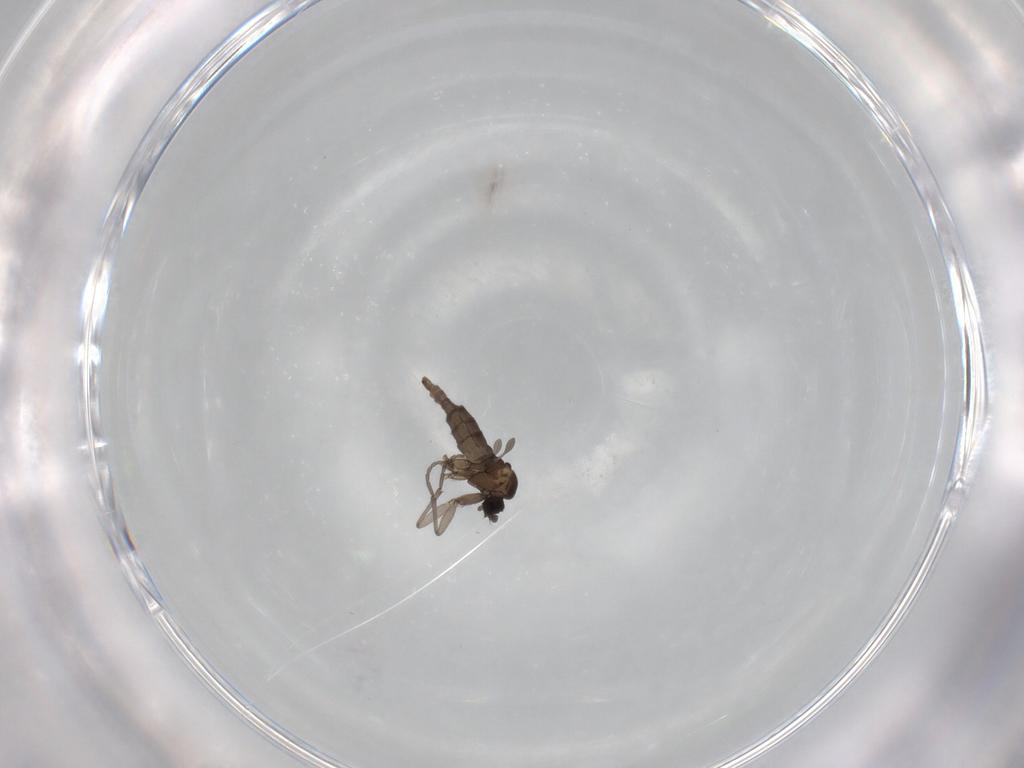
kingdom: Animalia
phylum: Arthropoda
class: Insecta
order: Diptera
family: Sciaridae
